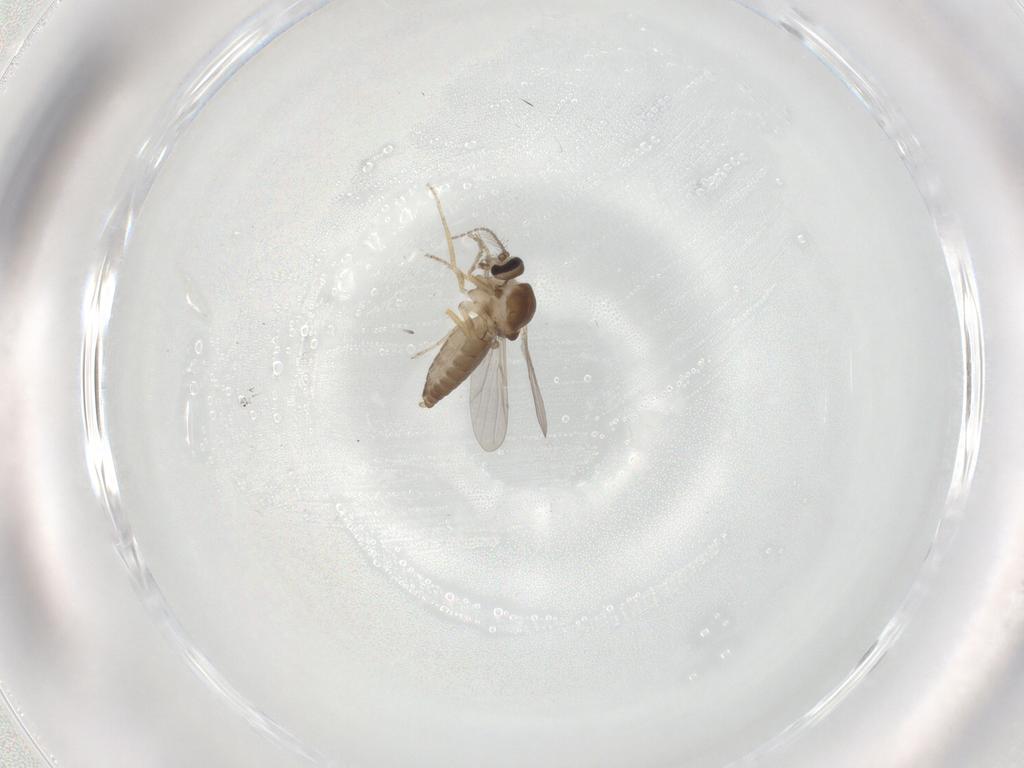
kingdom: Animalia
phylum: Arthropoda
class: Insecta
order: Diptera
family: Ceratopogonidae
